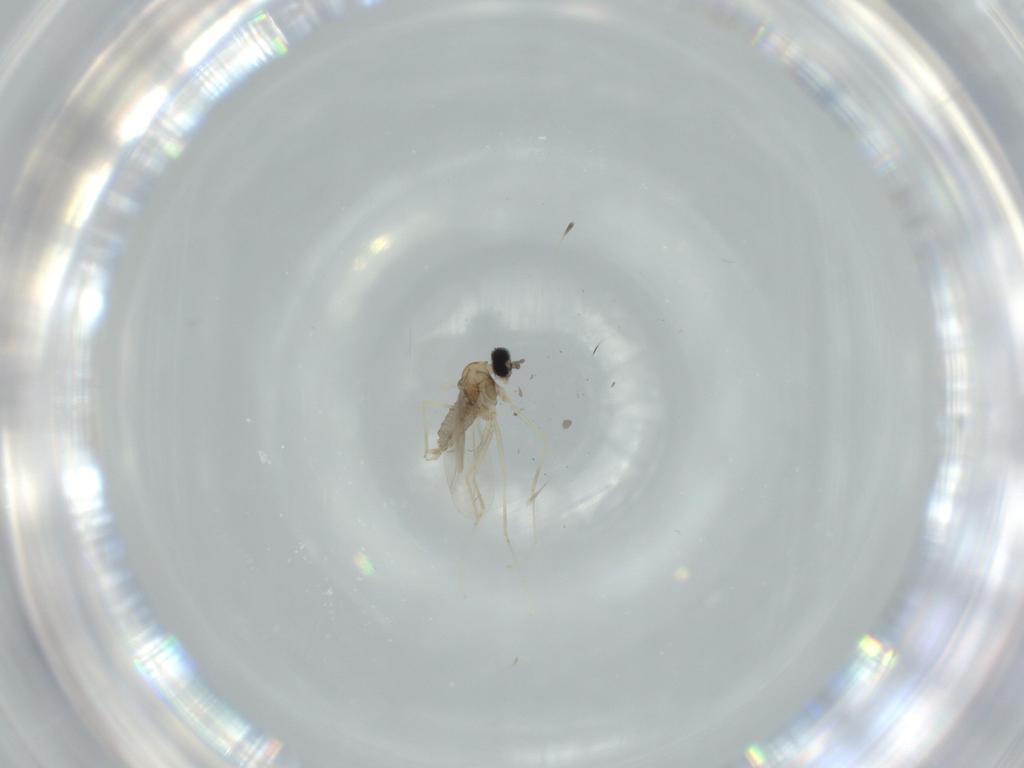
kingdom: Animalia
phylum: Arthropoda
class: Insecta
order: Diptera
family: Cecidomyiidae
